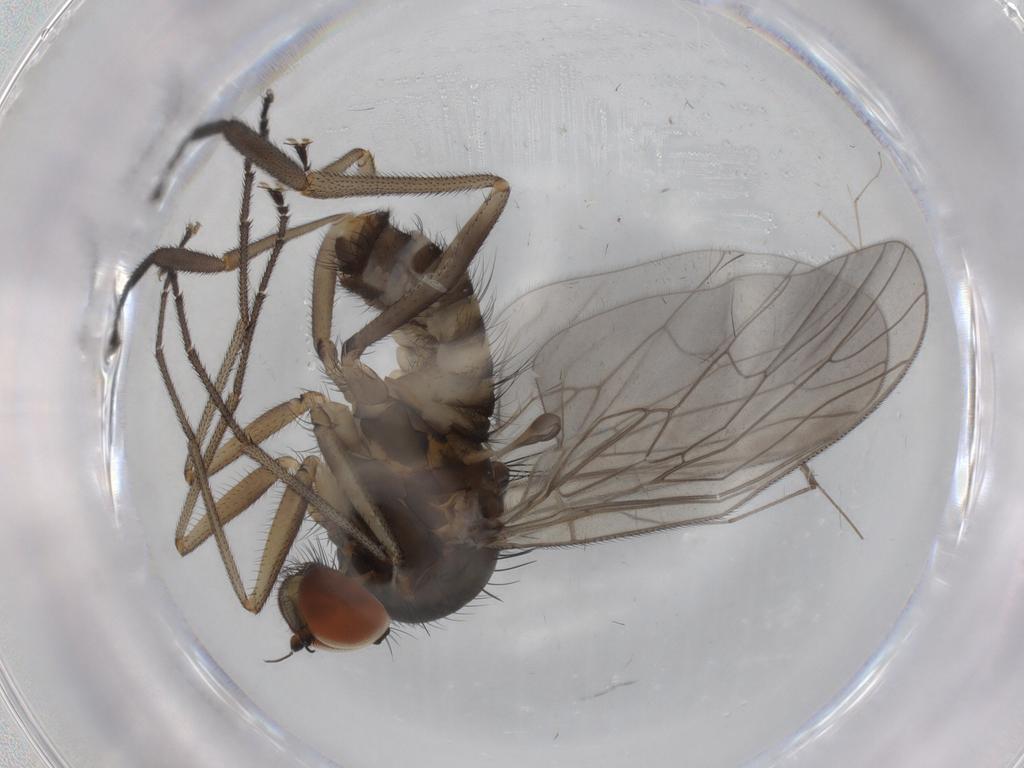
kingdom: Animalia
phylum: Arthropoda
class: Insecta
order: Diptera
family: Brachystomatidae
